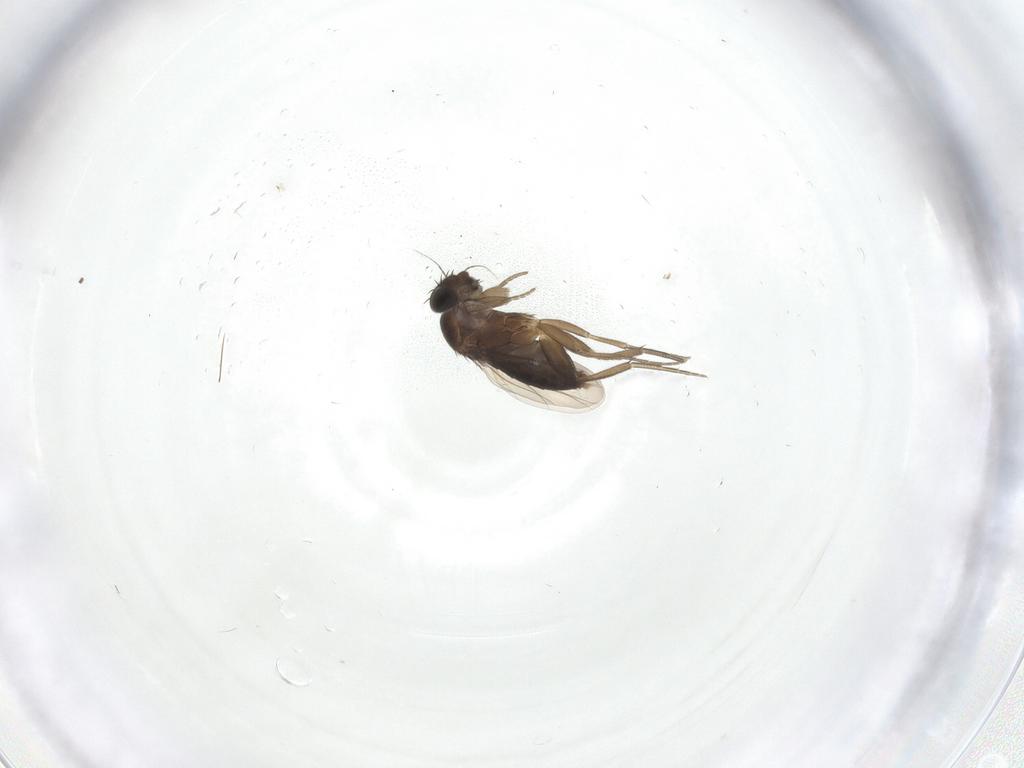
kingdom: Animalia
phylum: Arthropoda
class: Insecta
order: Diptera
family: Phoridae
